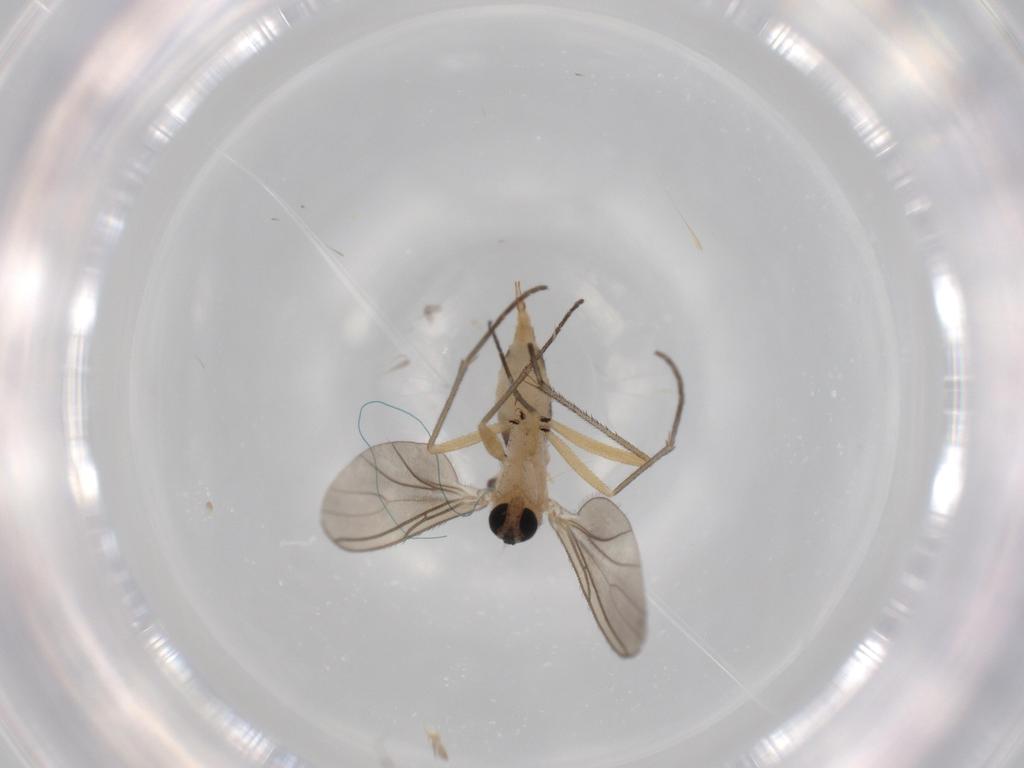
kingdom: Animalia
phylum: Arthropoda
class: Insecta
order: Diptera
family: Sciaridae
